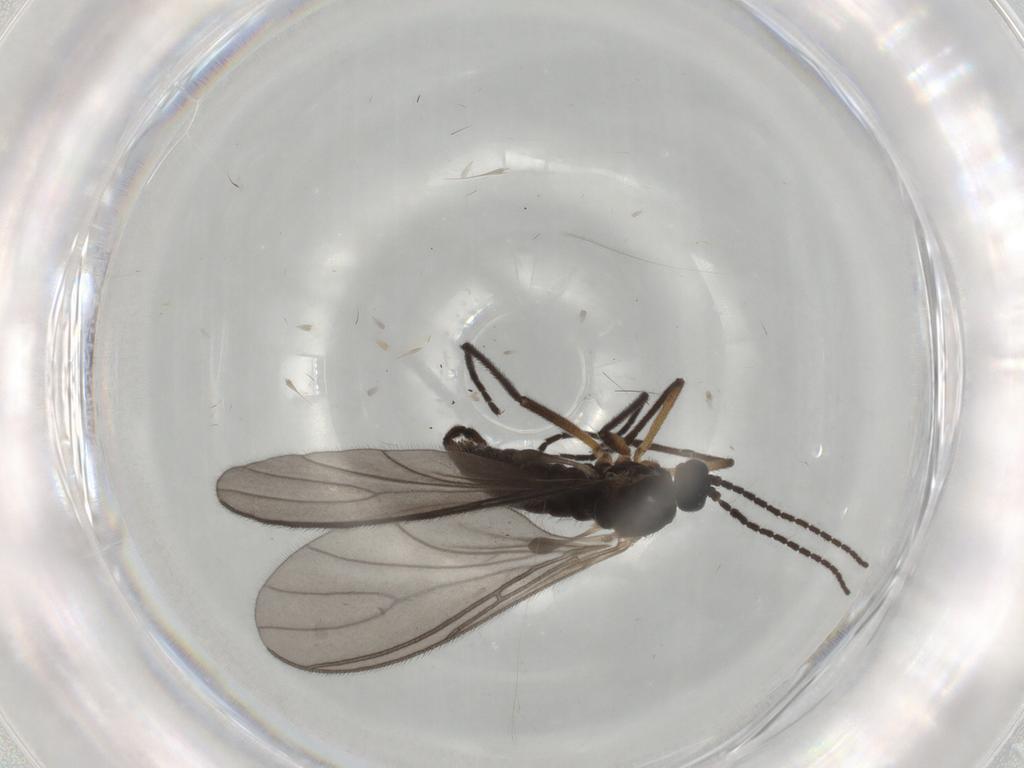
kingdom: Animalia
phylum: Arthropoda
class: Insecta
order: Diptera
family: Sciaridae
